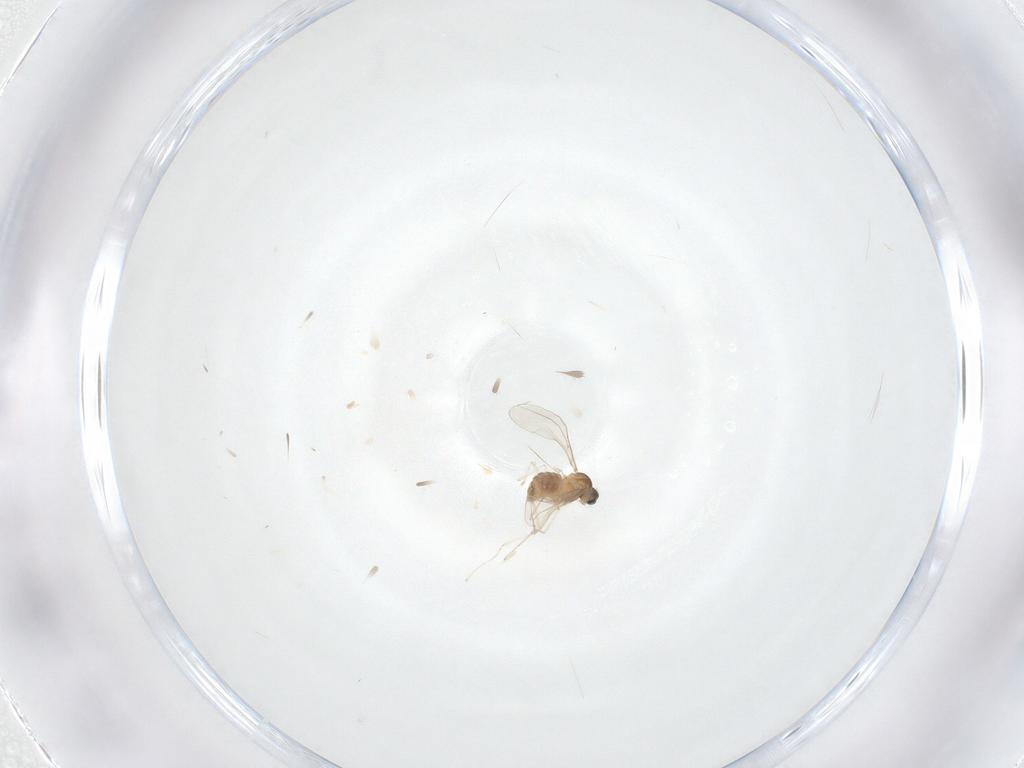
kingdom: Animalia
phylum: Arthropoda
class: Insecta
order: Diptera
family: Cecidomyiidae
